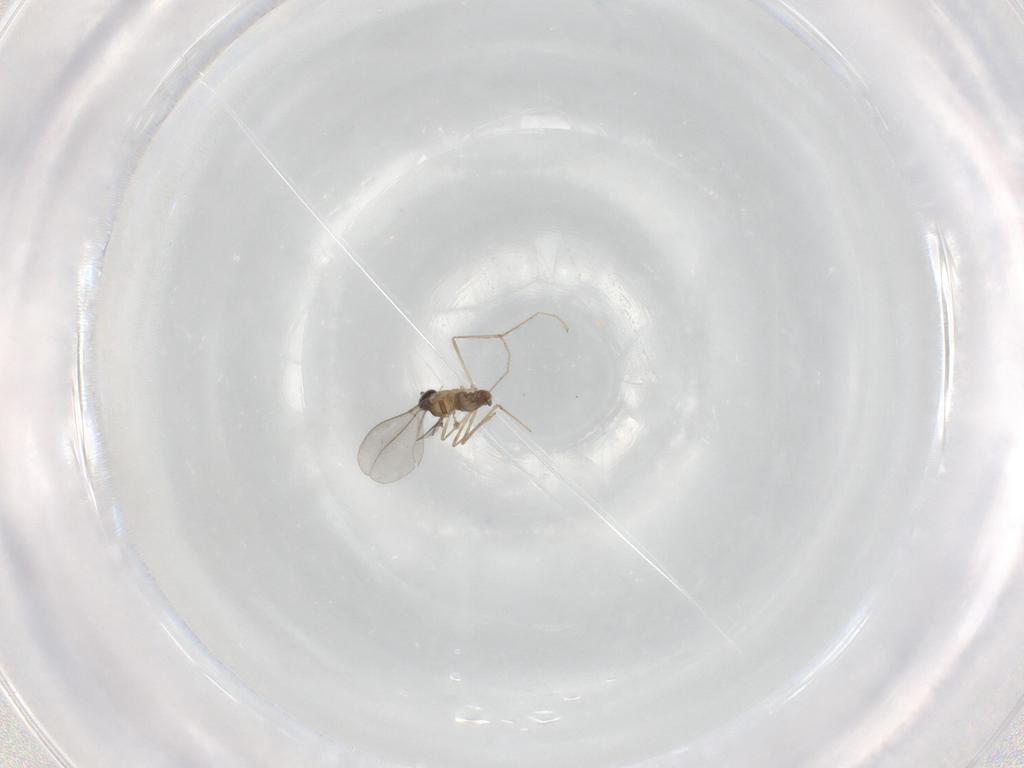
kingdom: Animalia
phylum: Arthropoda
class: Insecta
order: Diptera
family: Cecidomyiidae
